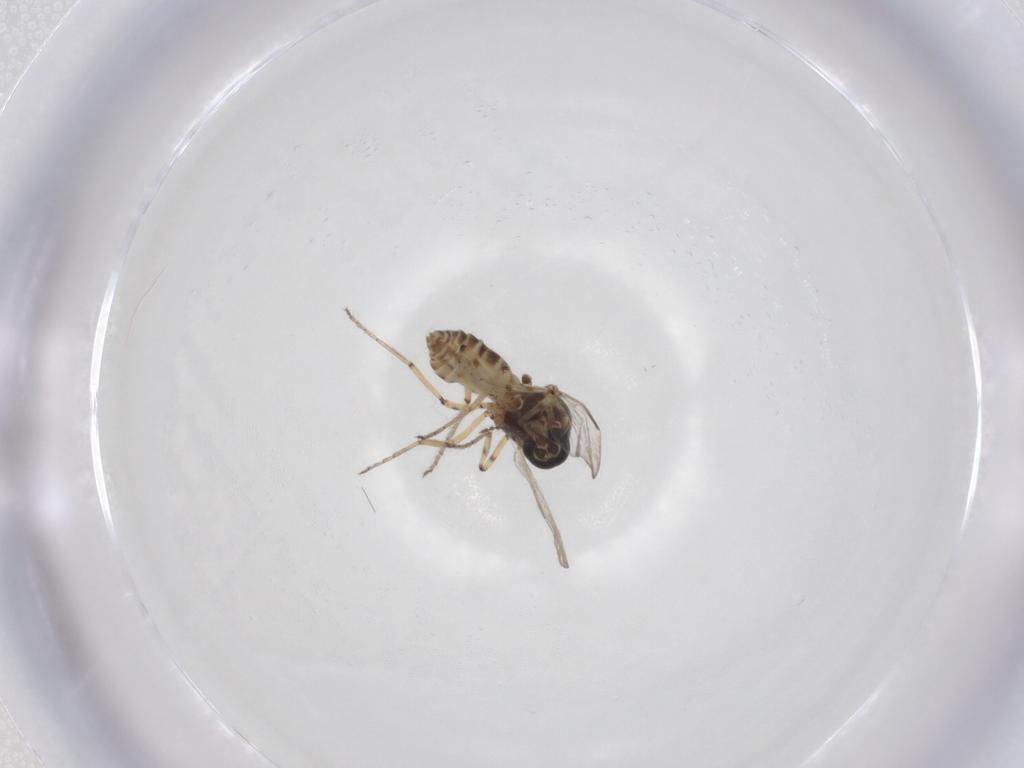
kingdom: Animalia
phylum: Arthropoda
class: Insecta
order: Diptera
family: Ceratopogonidae
